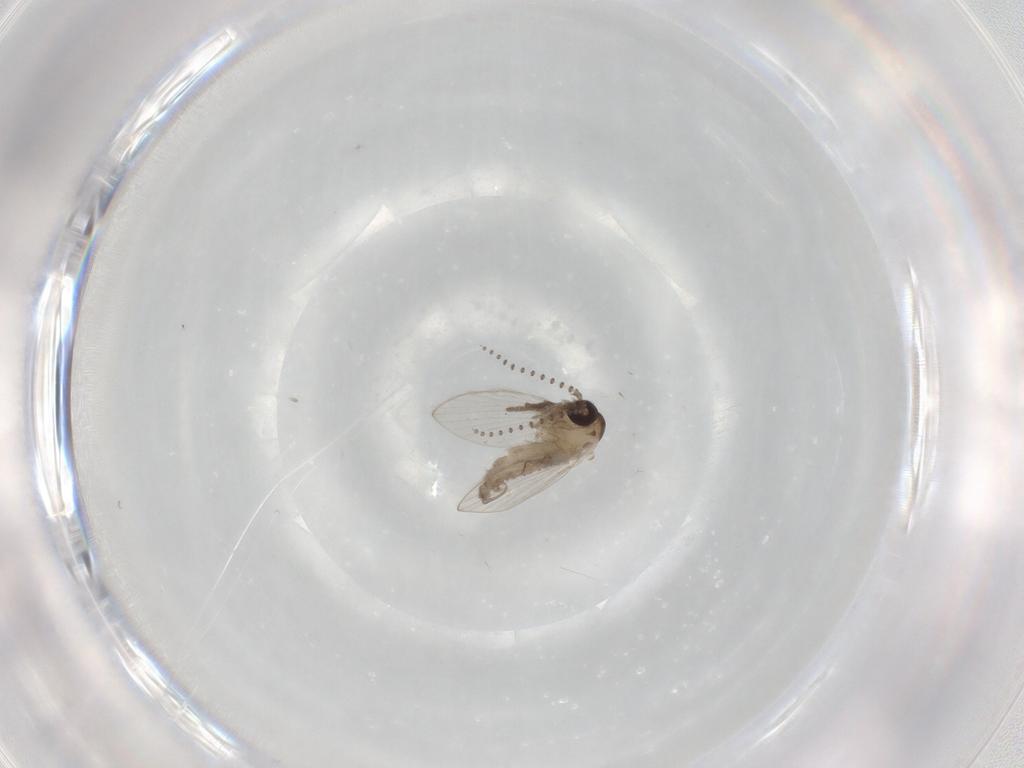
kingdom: Animalia
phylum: Arthropoda
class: Insecta
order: Diptera
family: Psychodidae
